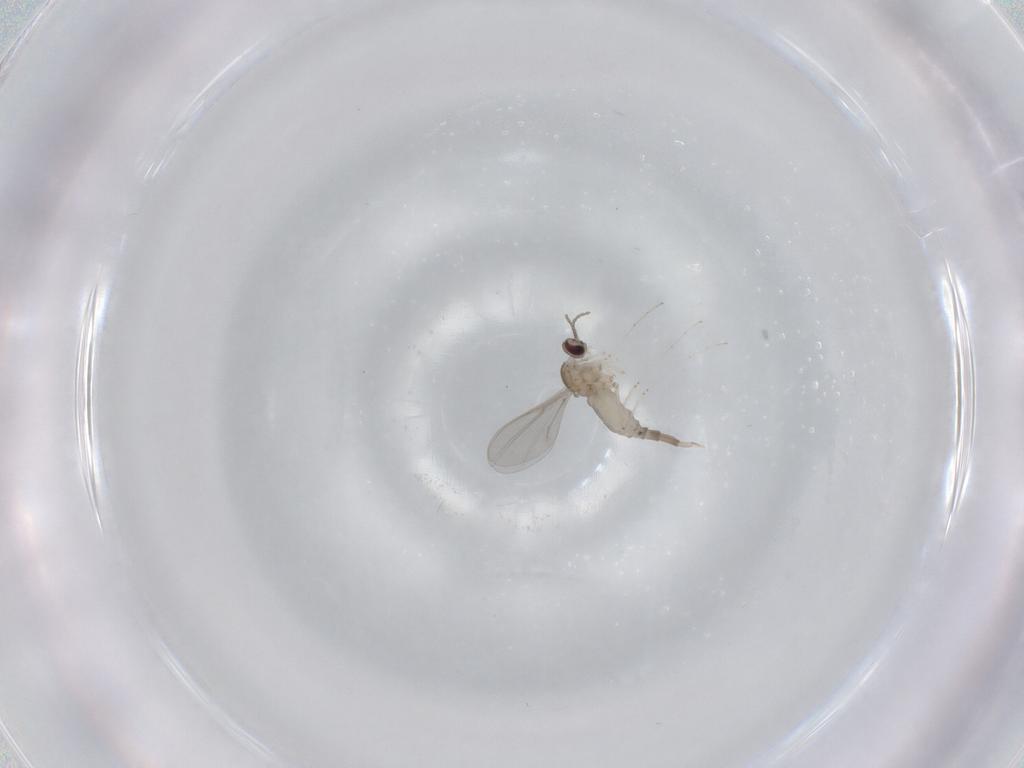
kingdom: Animalia
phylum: Arthropoda
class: Insecta
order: Diptera
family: Cecidomyiidae
